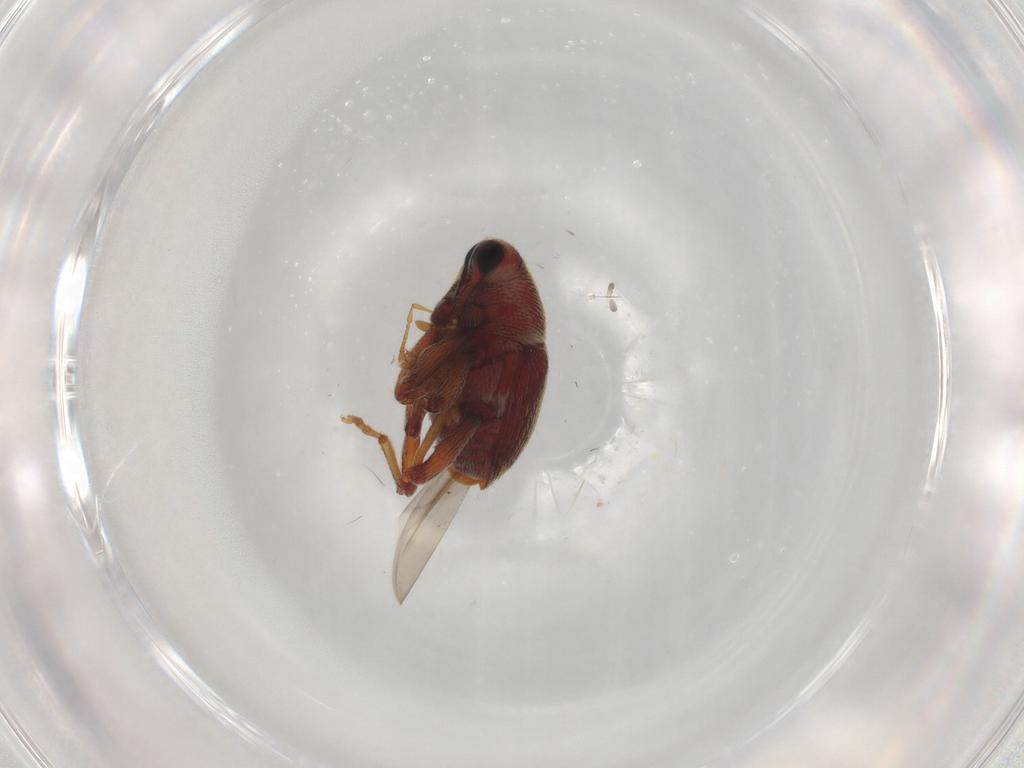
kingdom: Animalia
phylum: Arthropoda
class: Insecta
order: Coleoptera
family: Curculionidae
